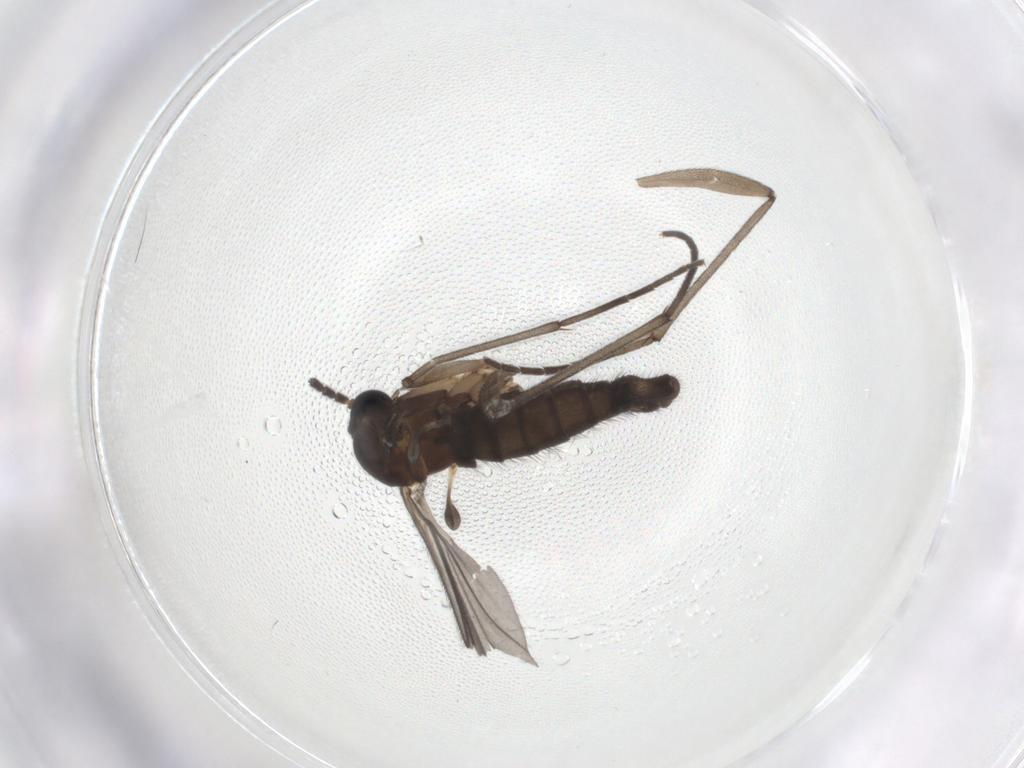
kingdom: Animalia
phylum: Arthropoda
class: Insecta
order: Diptera
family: Sciaridae
